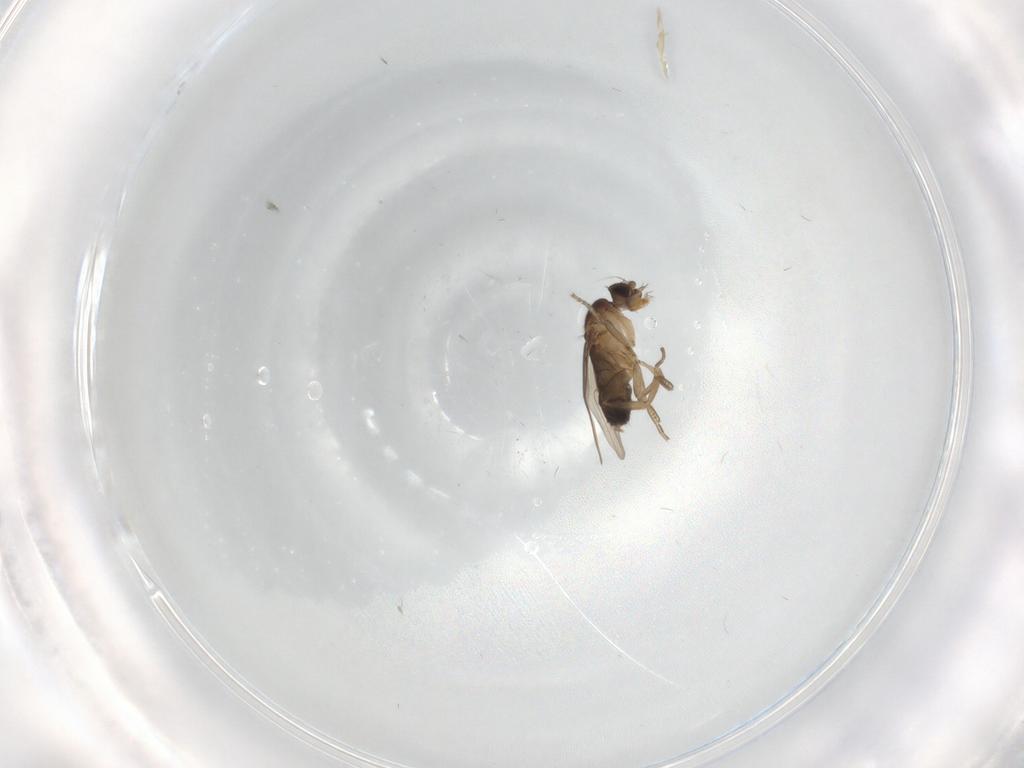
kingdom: Animalia
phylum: Arthropoda
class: Insecta
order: Diptera
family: Phoridae
